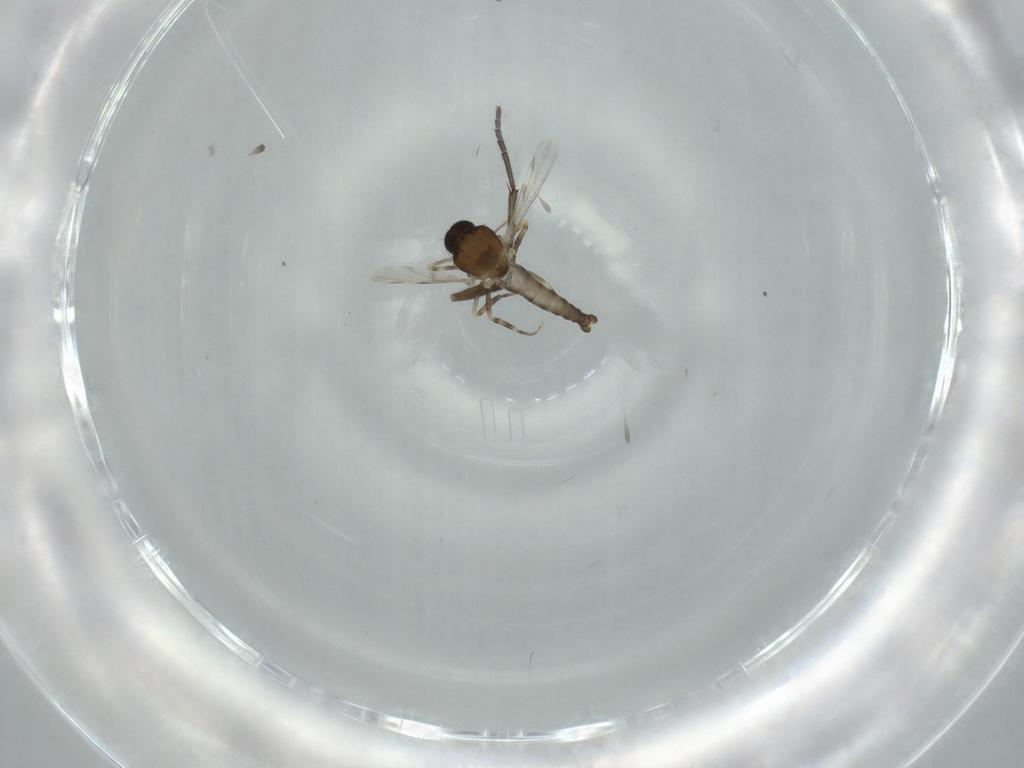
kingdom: Animalia
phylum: Arthropoda
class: Insecta
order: Diptera
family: Ceratopogonidae
